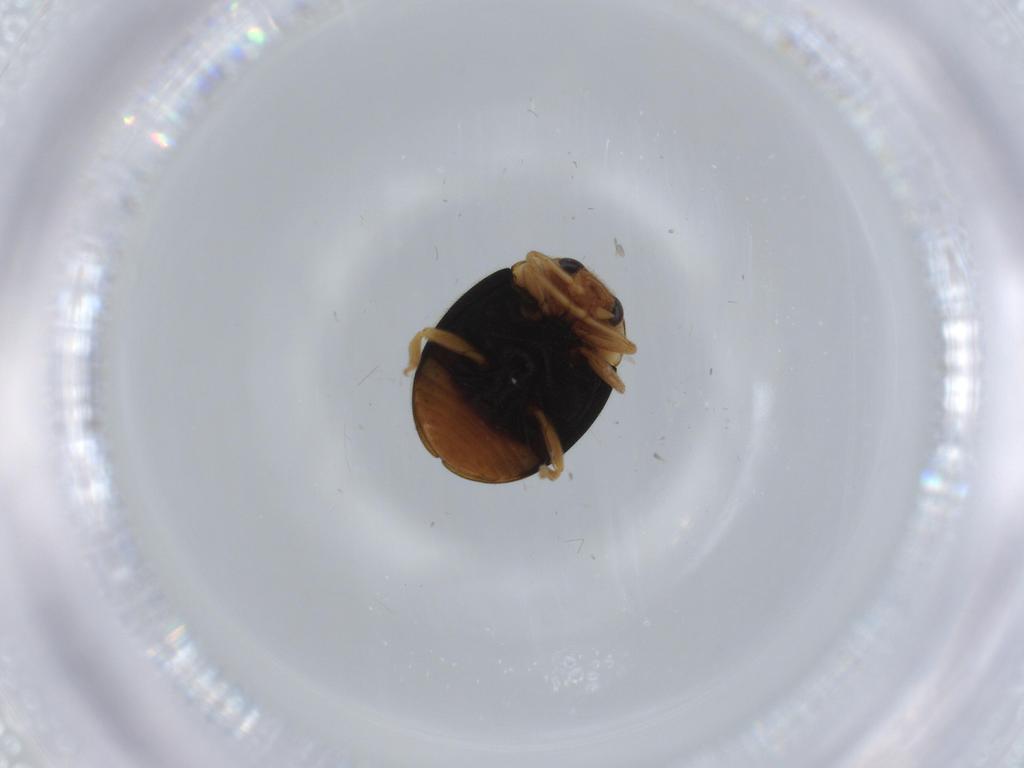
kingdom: Animalia
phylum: Arthropoda
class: Insecta
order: Coleoptera
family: Coccinellidae
